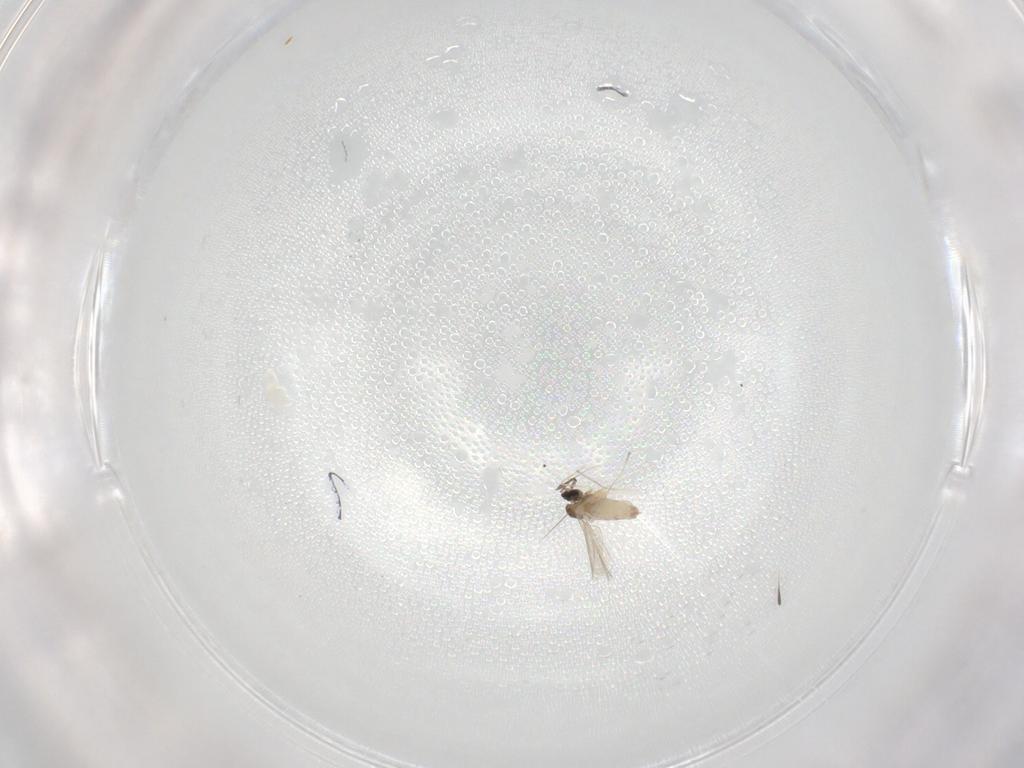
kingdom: Animalia
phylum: Arthropoda
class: Insecta
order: Diptera
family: Cecidomyiidae
